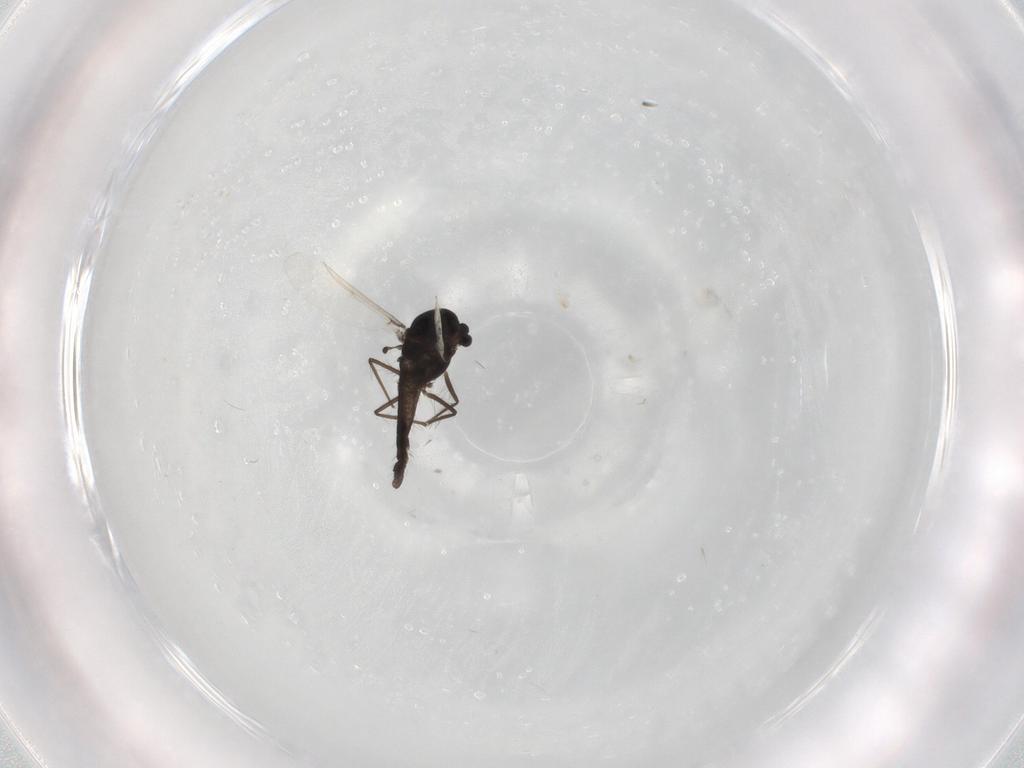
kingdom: Animalia
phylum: Arthropoda
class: Insecta
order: Diptera
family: Chironomidae
